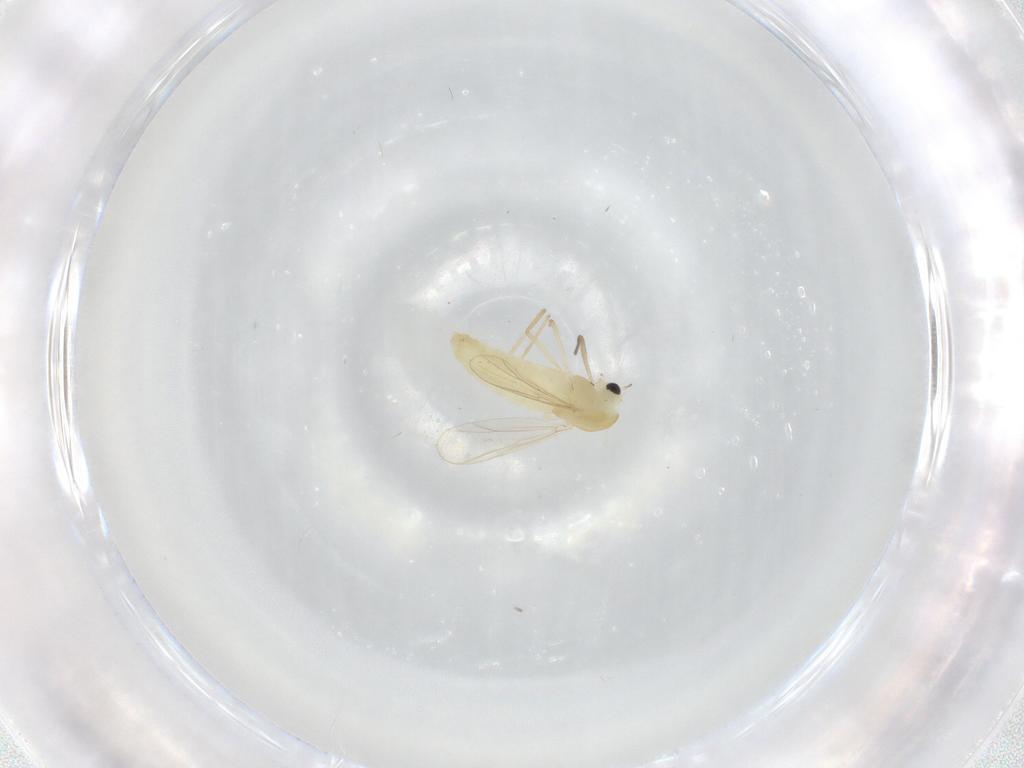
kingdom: Animalia
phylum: Arthropoda
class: Insecta
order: Diptera
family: Chironomidae
